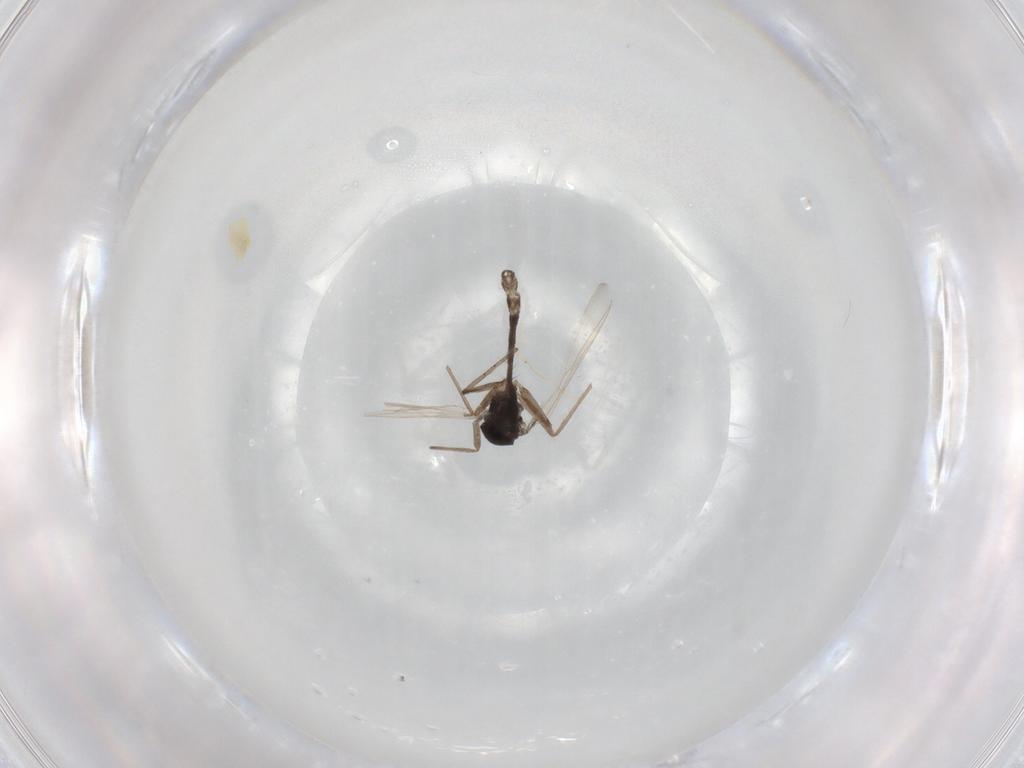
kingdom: Animalia
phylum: Arthropoda
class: Insecta
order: Diptera
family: Chironomidae
